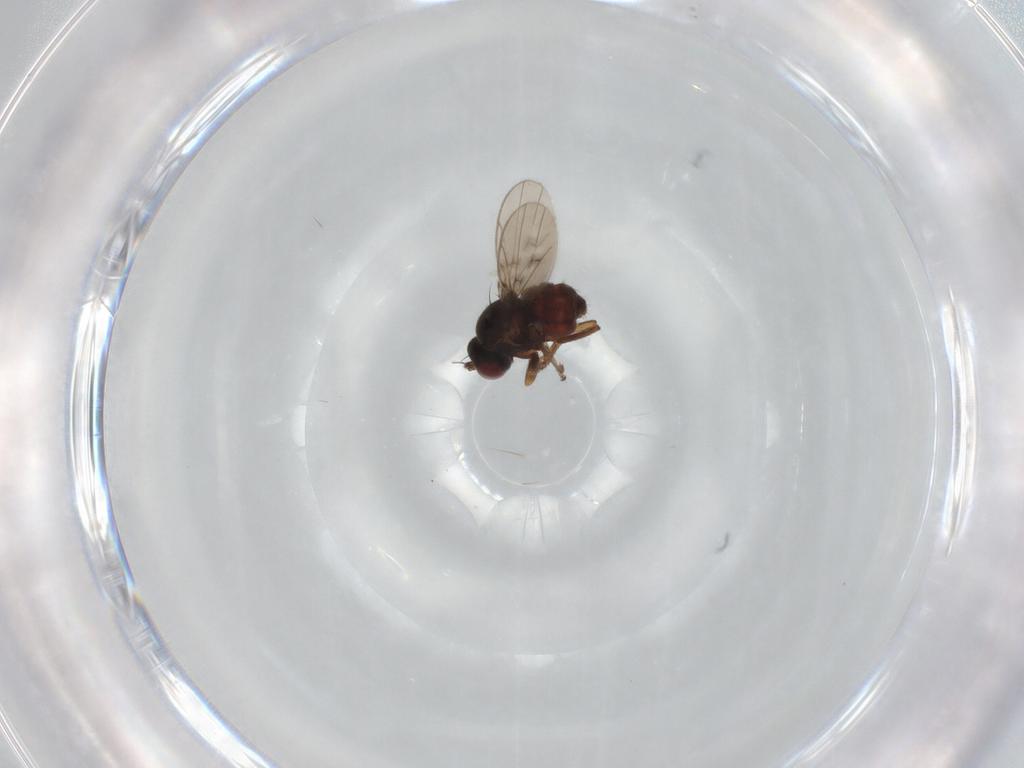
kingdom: Animalia
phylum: Arthropoda
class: Insecta
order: Diptera
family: Ephydridae
